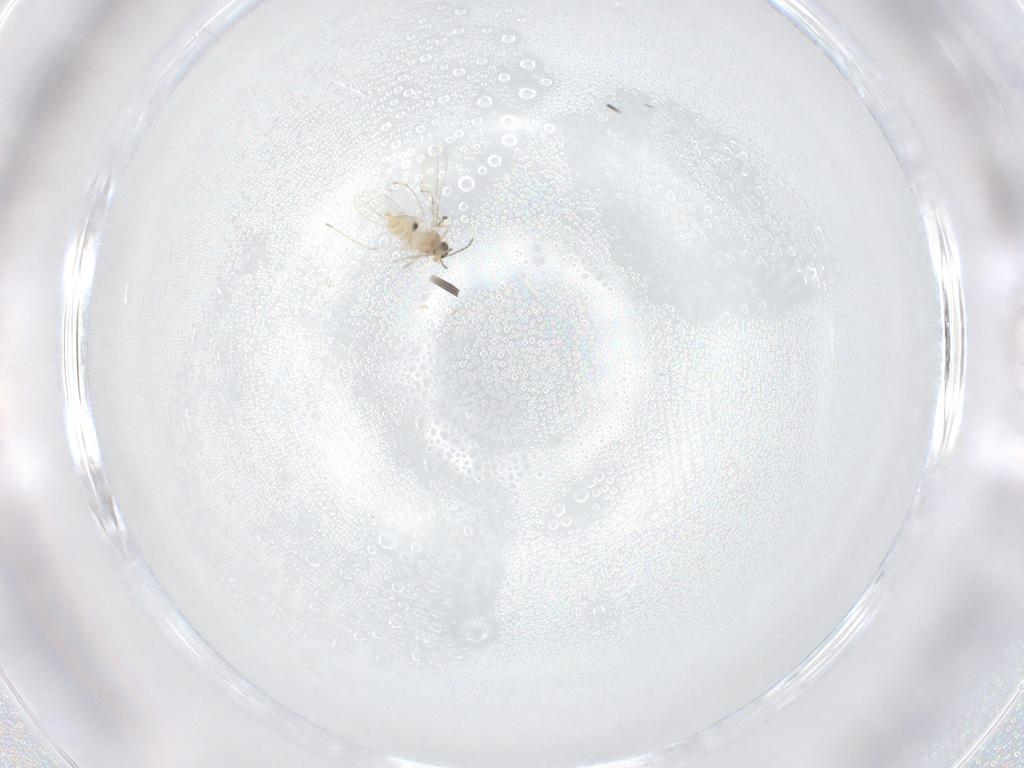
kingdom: Animalia
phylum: Arthropoda
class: Insecta
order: Diptera
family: Cecidomyiidae
